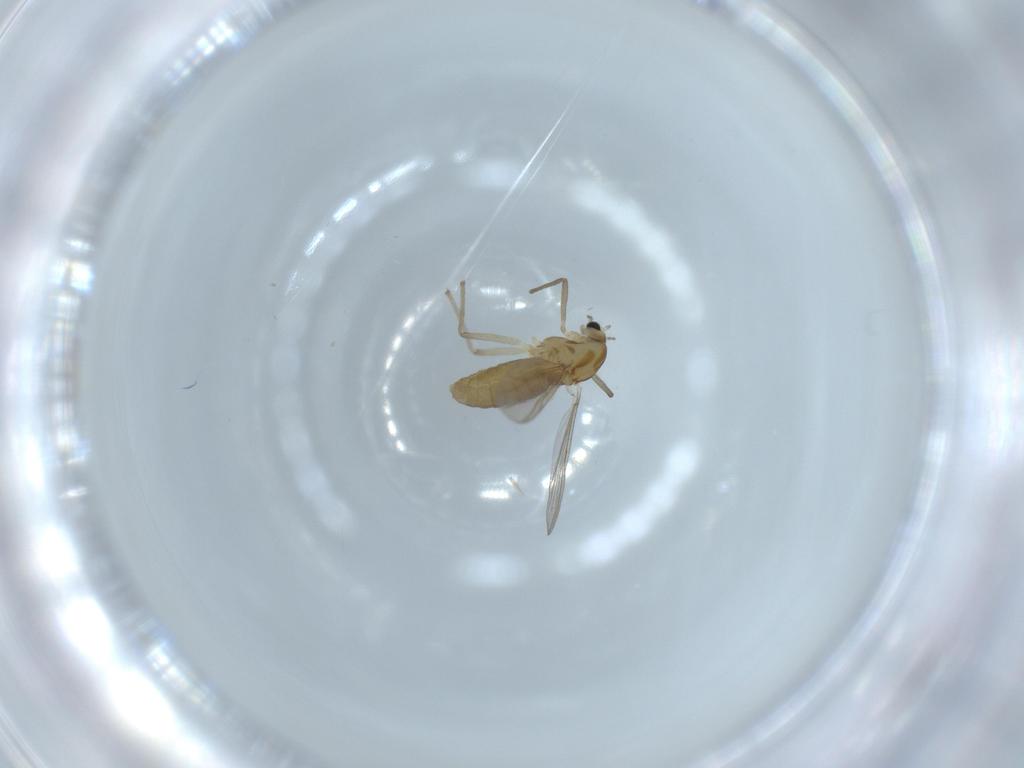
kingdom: Animalia
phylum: Arthropoda
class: Insecta
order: Diptera
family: Chironomidae
